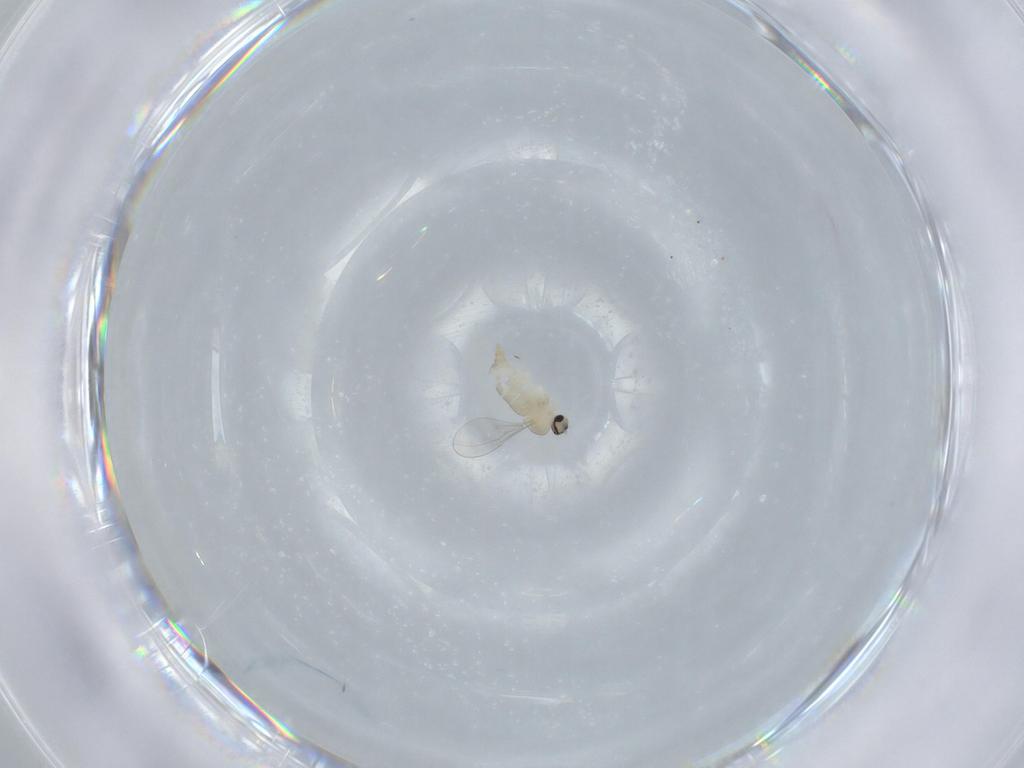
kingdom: Animalia
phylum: Arthropoda
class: Insecta
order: Diptera
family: Cecidomyiidae
